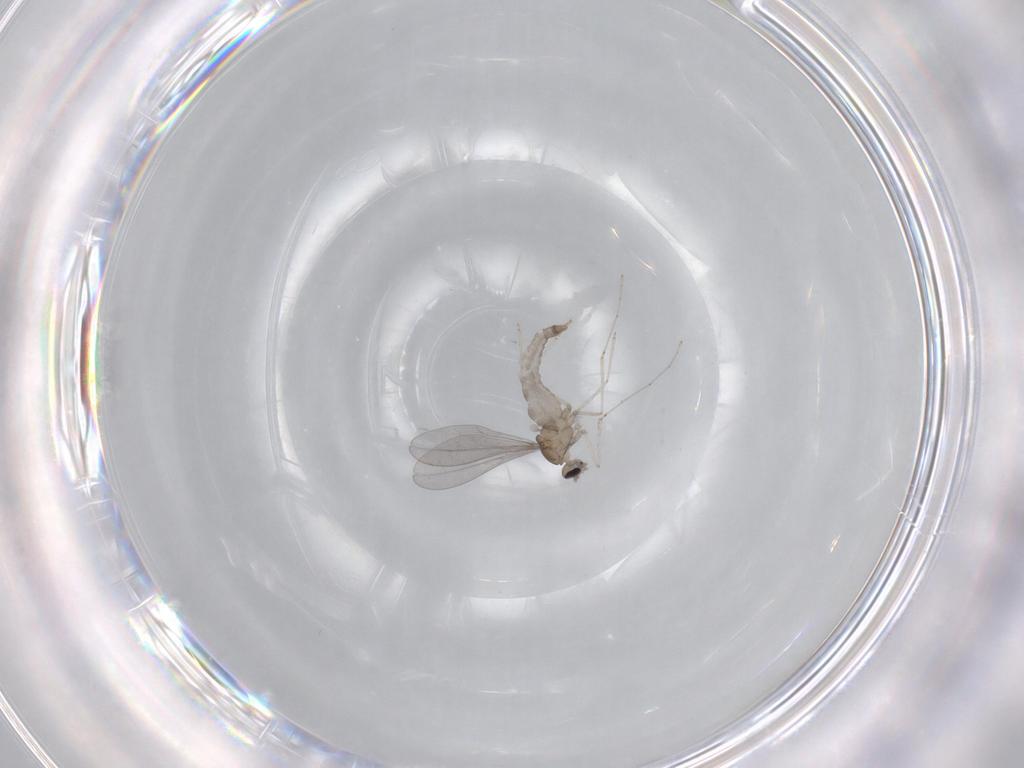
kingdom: Animalia
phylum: Arthropoda
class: Insecta
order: Diptera
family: Cecidomyiidae
